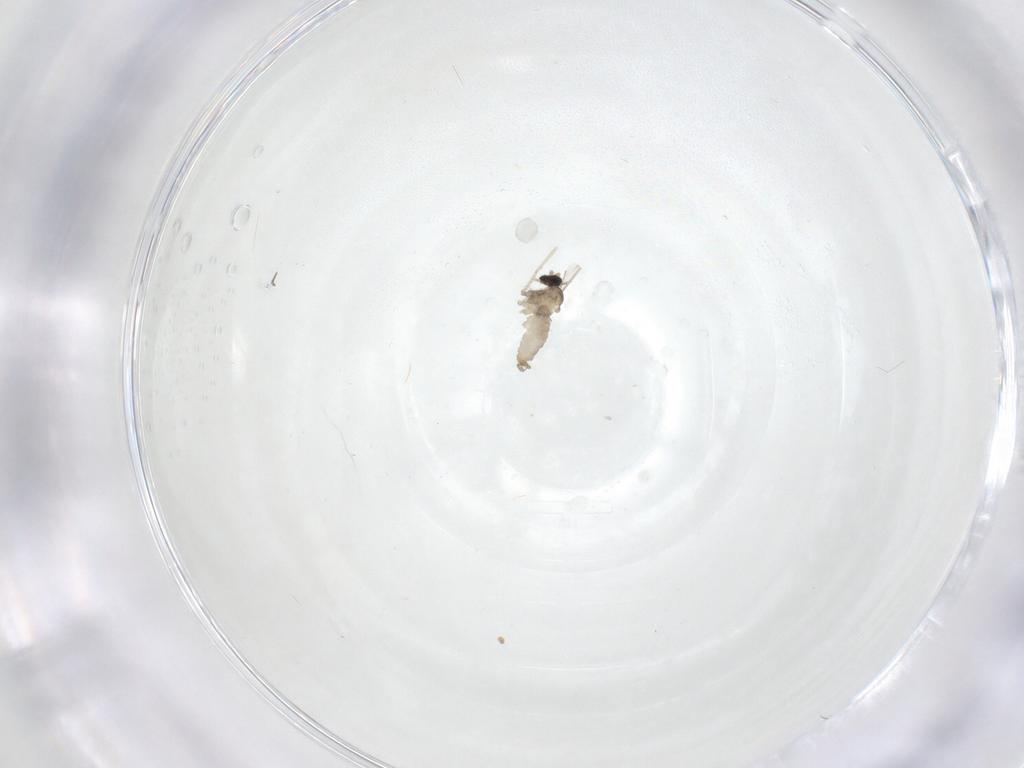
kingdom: Animalia
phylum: Arthropoda
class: Insecta
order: Diptera
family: Cecidomyiidae
